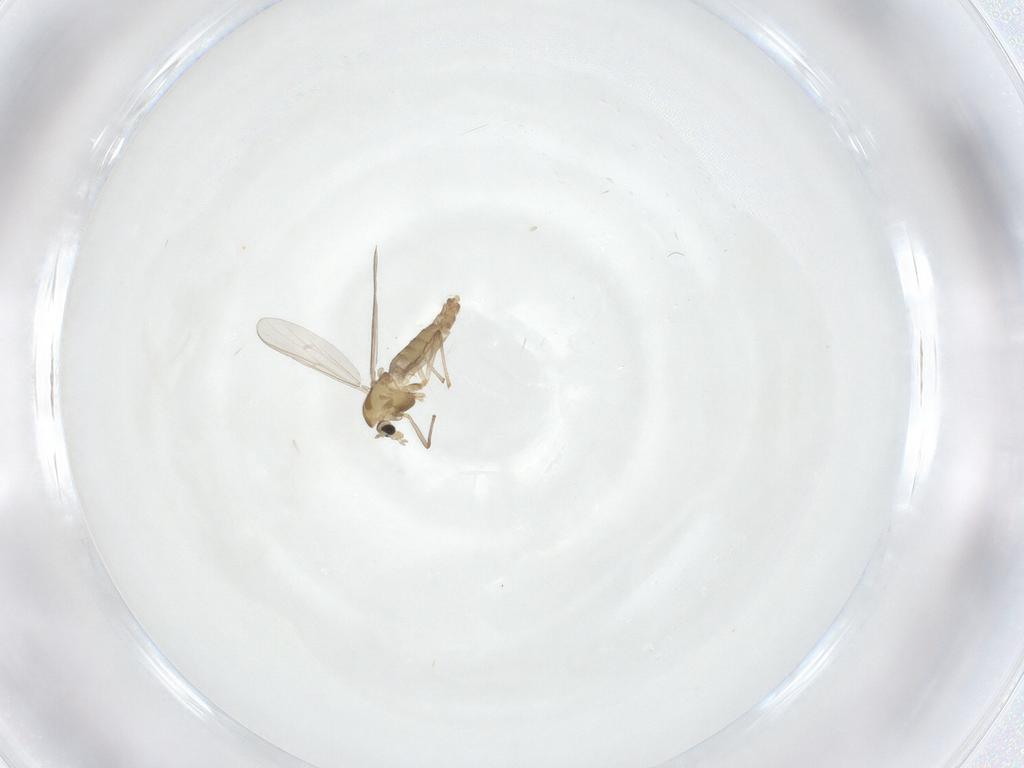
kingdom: Animalia
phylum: Arthropoda
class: Insecta
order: Diptera
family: Chironomidae
